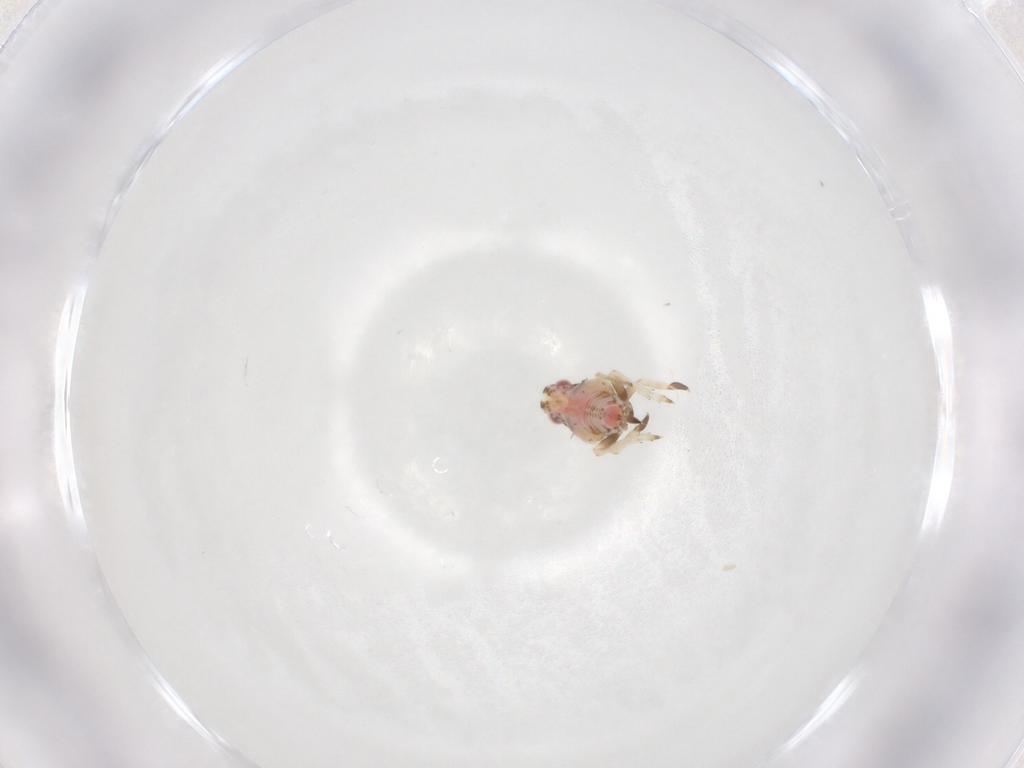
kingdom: Animalia
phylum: Arthropoda
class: Insecta
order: Hemiptera
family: Tropiduchidae
